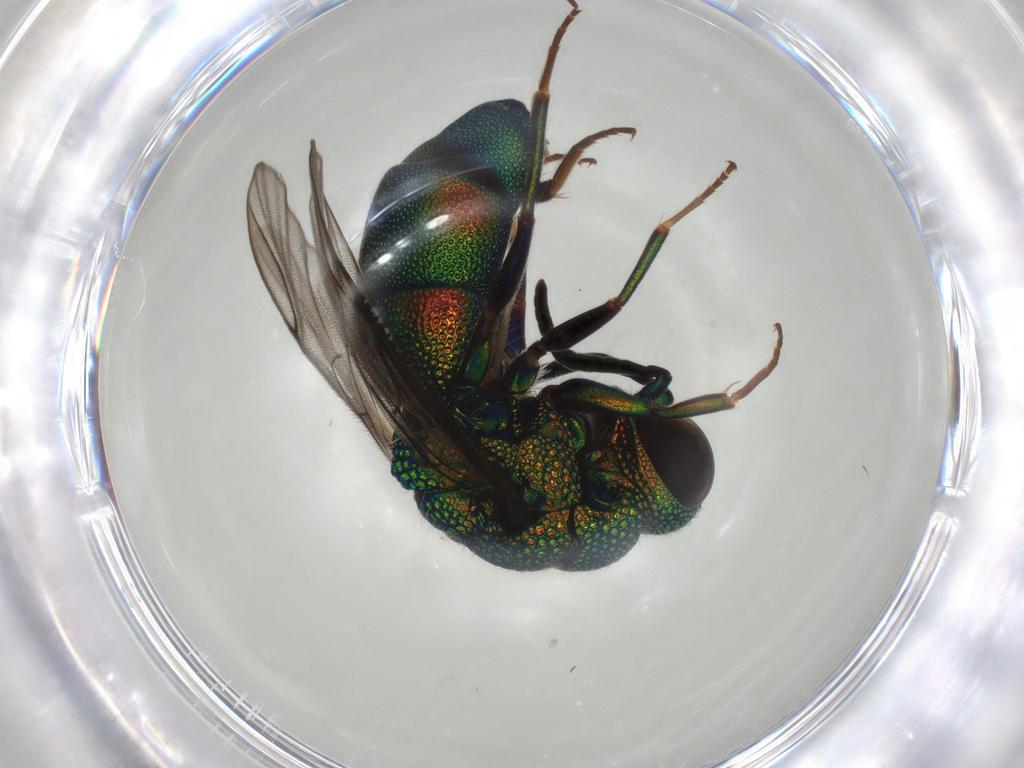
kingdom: Animalia
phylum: Arthropoda
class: Insecta
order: Hymenoptera
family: Chrysididae
